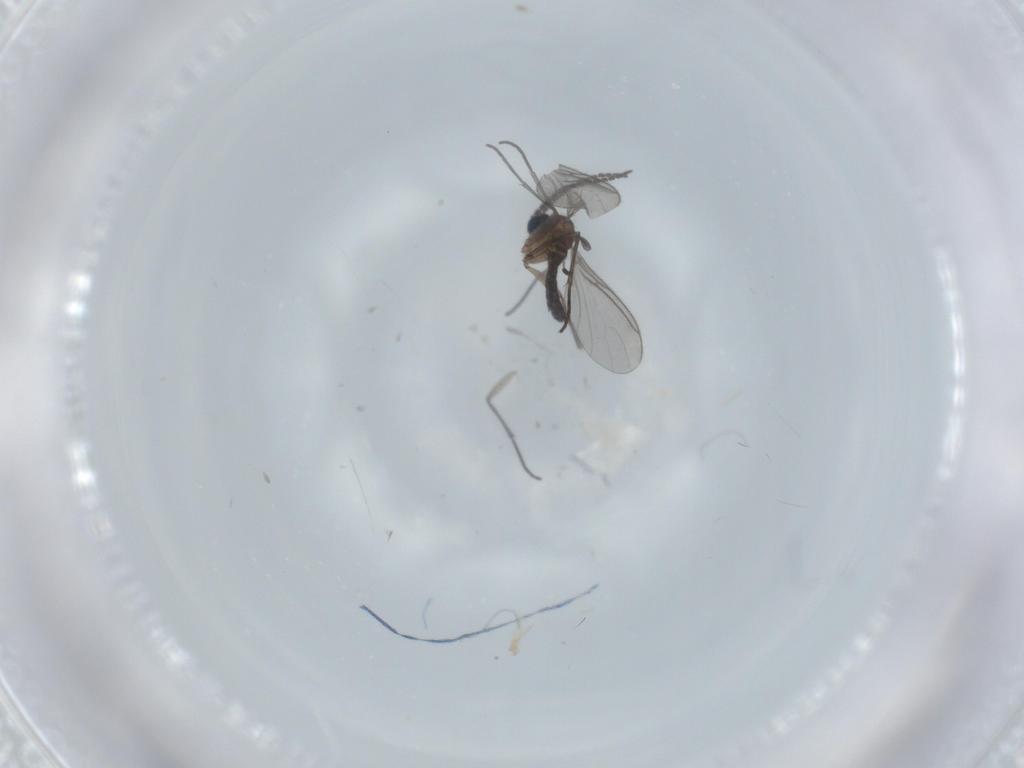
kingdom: Animalia
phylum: Arthropoda
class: Insecta
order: Diptera
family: Sciaridae
